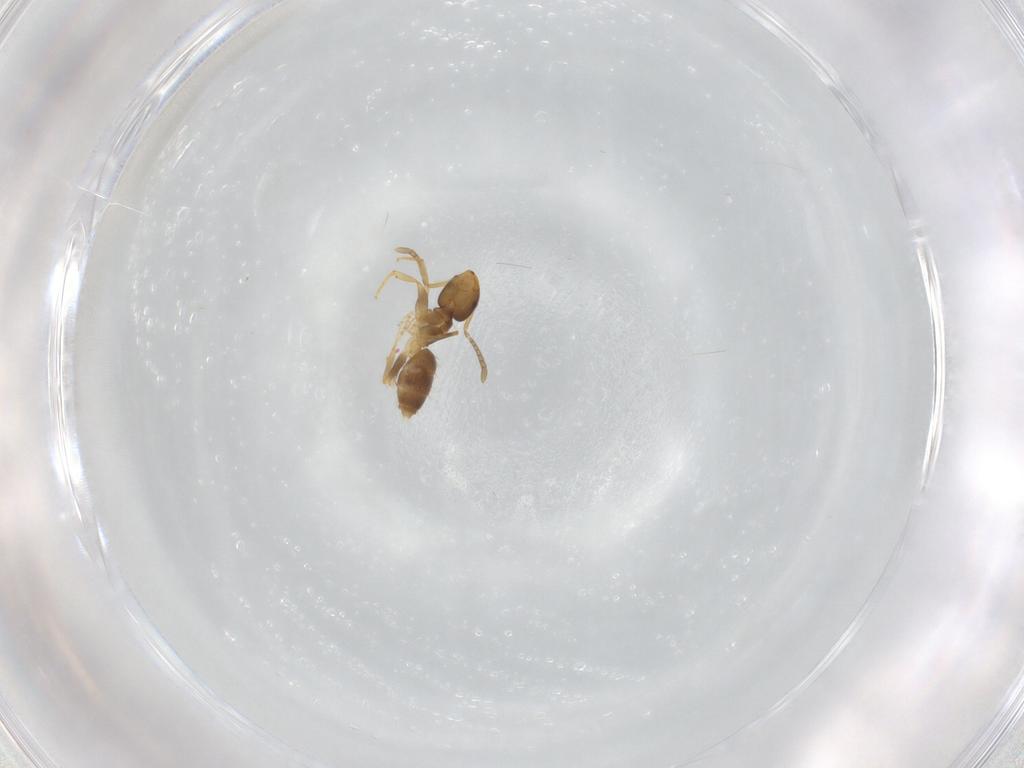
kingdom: Animalia
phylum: Arthropoda
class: Insecta
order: Hymenoptera
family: Formicidae
